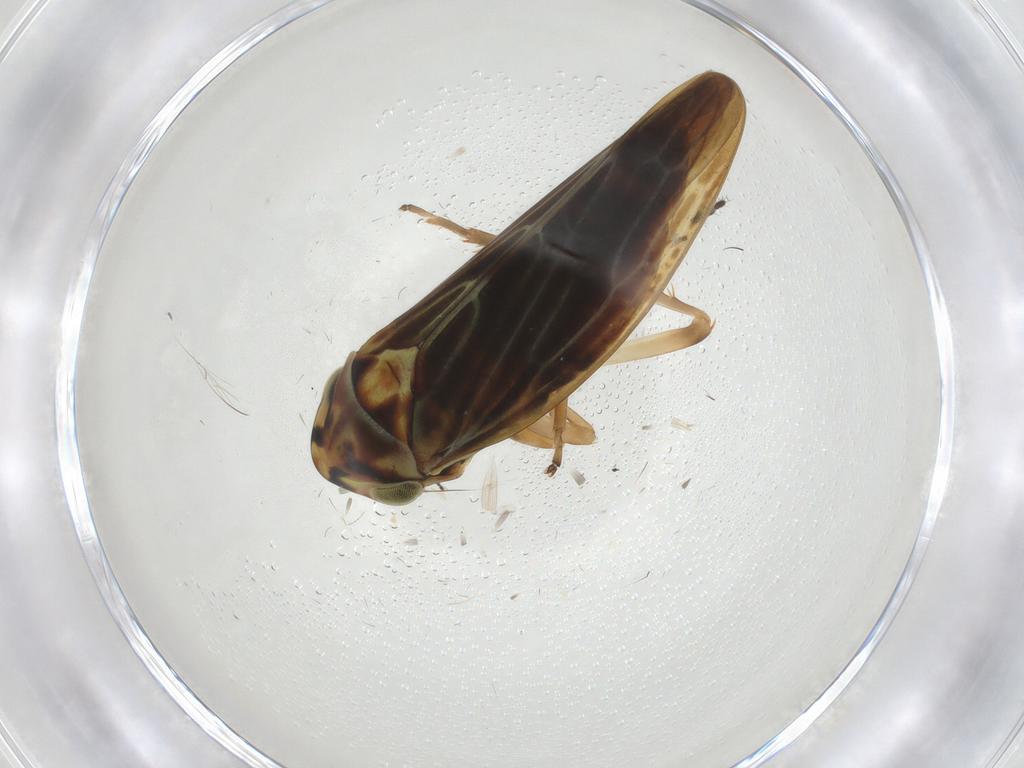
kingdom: Animalia
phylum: Arthropoda
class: Insecta
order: Hemiptera
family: Cicadellidae
